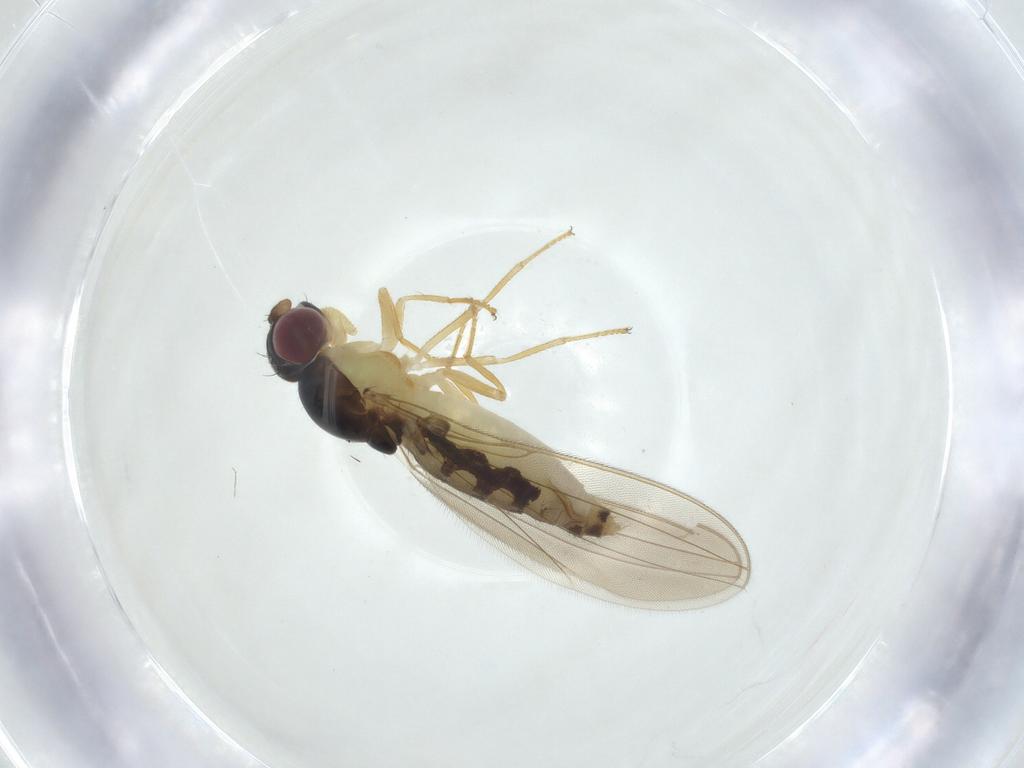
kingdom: Animalia
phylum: Arthropoda
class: Insecta
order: Diptera
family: Asteiidae
